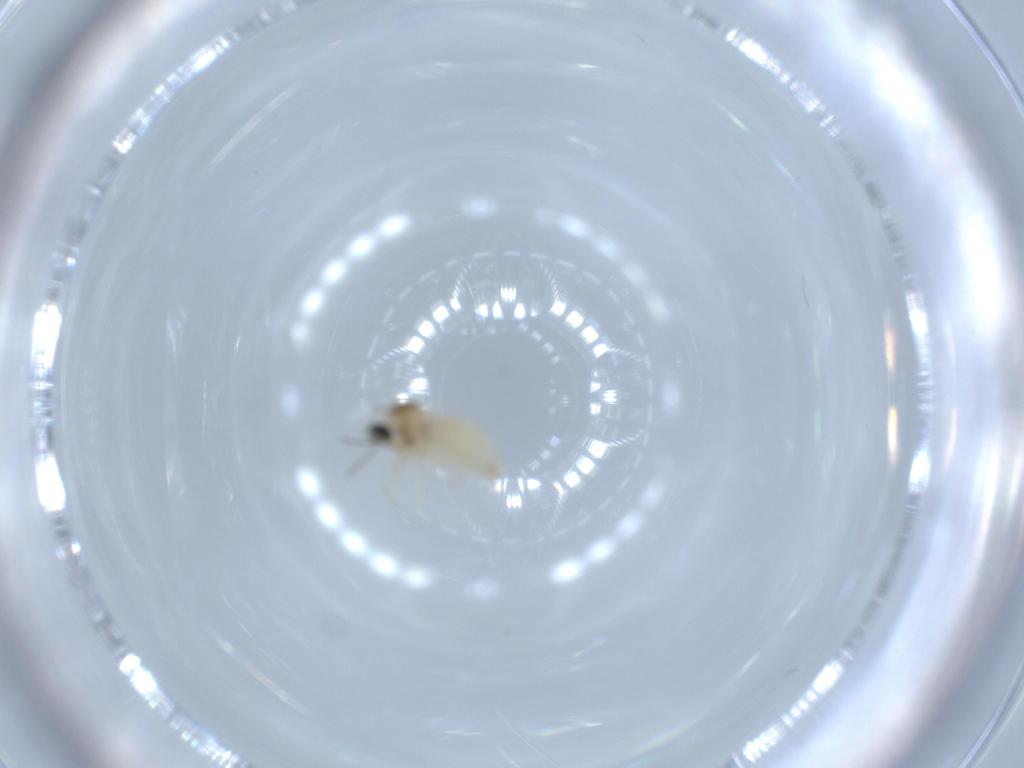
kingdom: Animalia
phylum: Arthropoda
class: Insecta
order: Diptera
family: Cecidomyiidae
